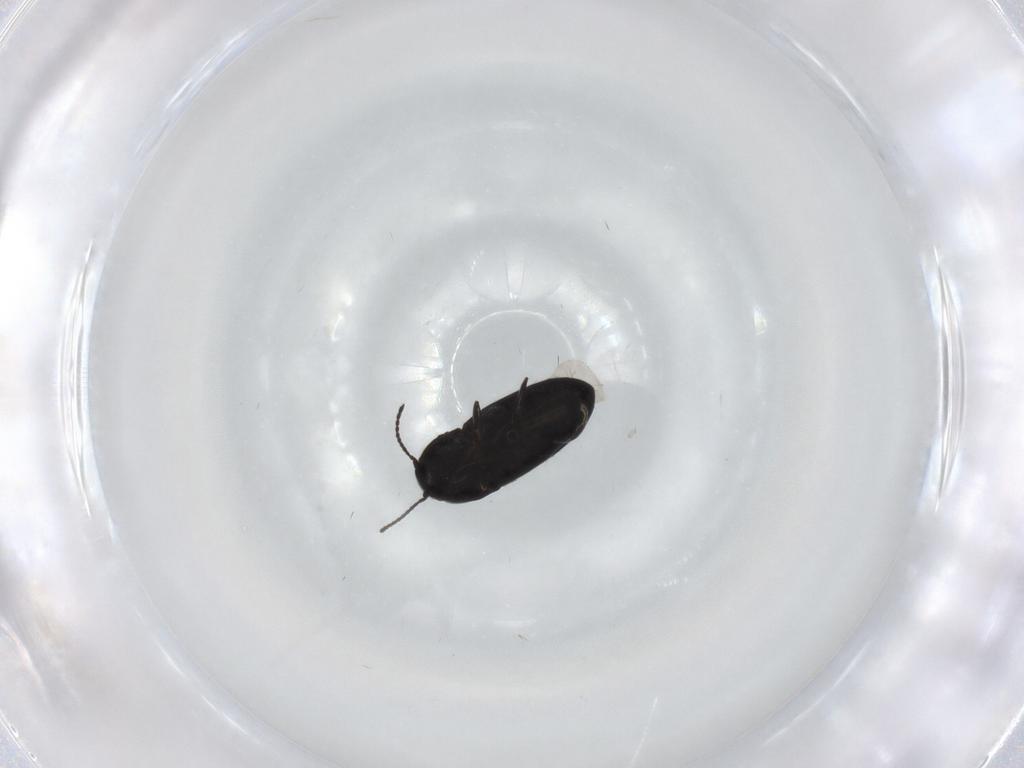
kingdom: Animalia
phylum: Arthropoda
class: Insecta
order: Coleoptera
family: Elateridae
